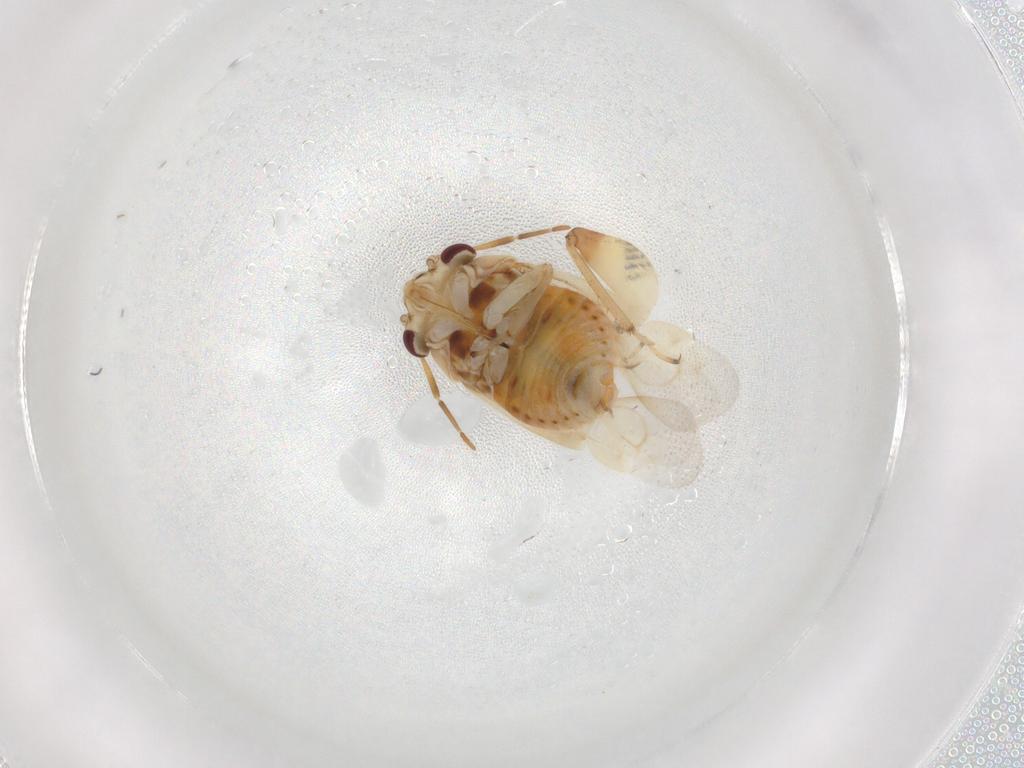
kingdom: Animalia
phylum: Arthropoda
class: Insecta
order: Hemiptera
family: Miridae
